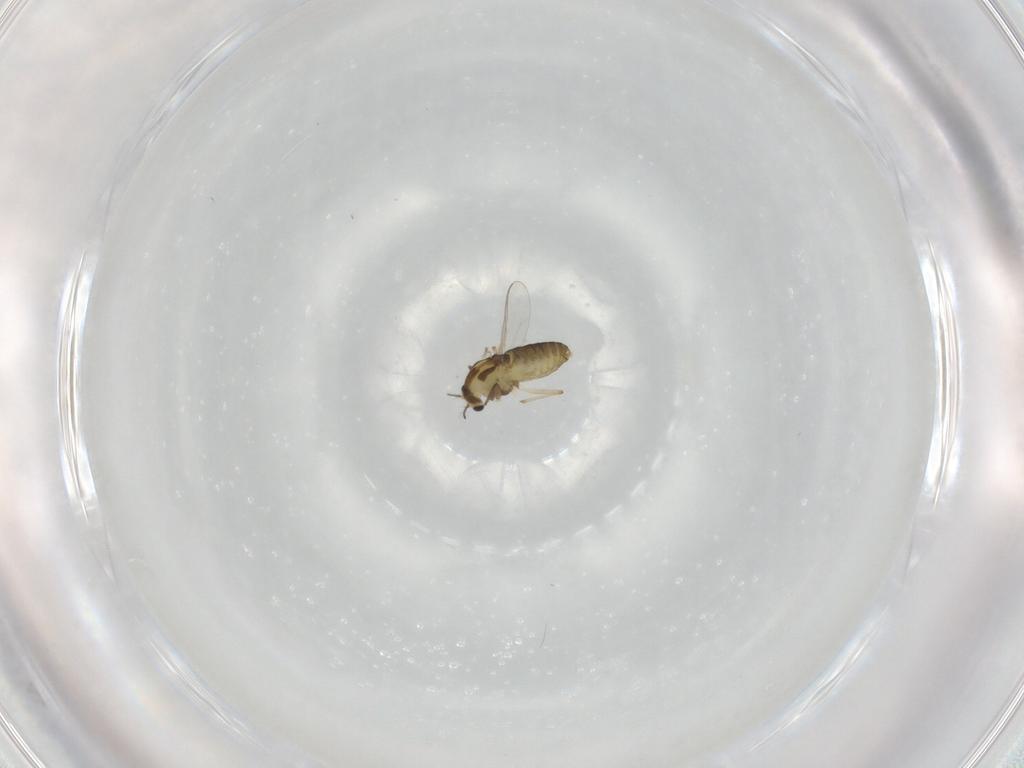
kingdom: Animalia
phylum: Arthropoda
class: Insecta
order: Diptera
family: Chironomidae
